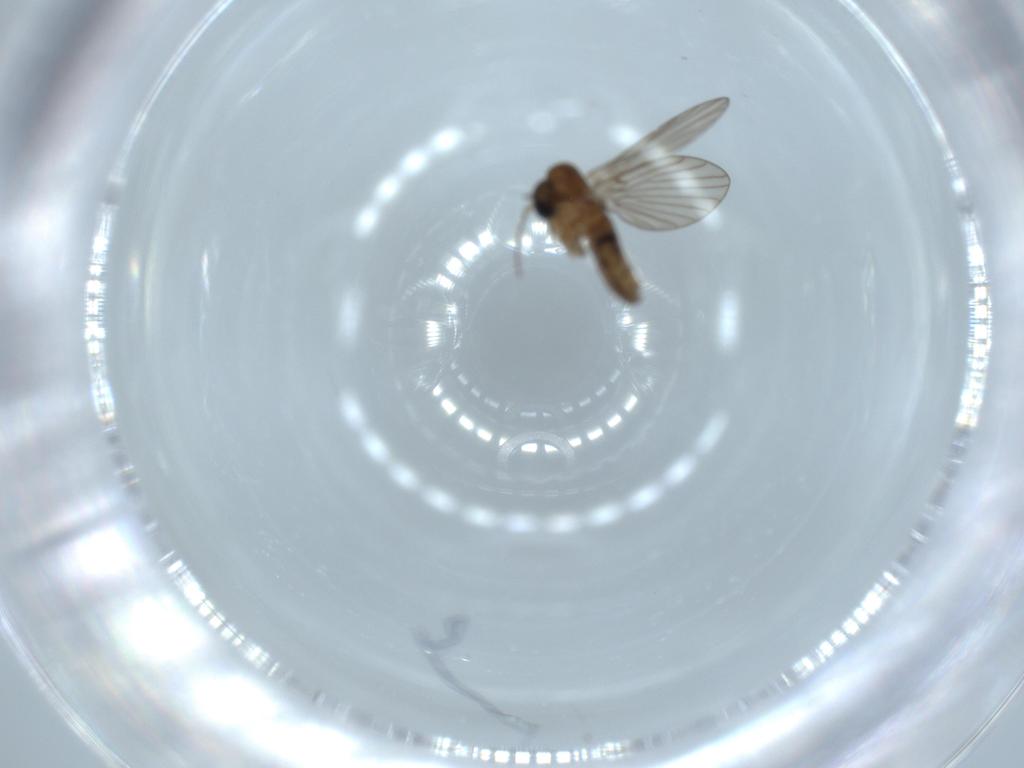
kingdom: Animalia
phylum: Arthropoda
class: Insecta
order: Diptera
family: Psychodidae
